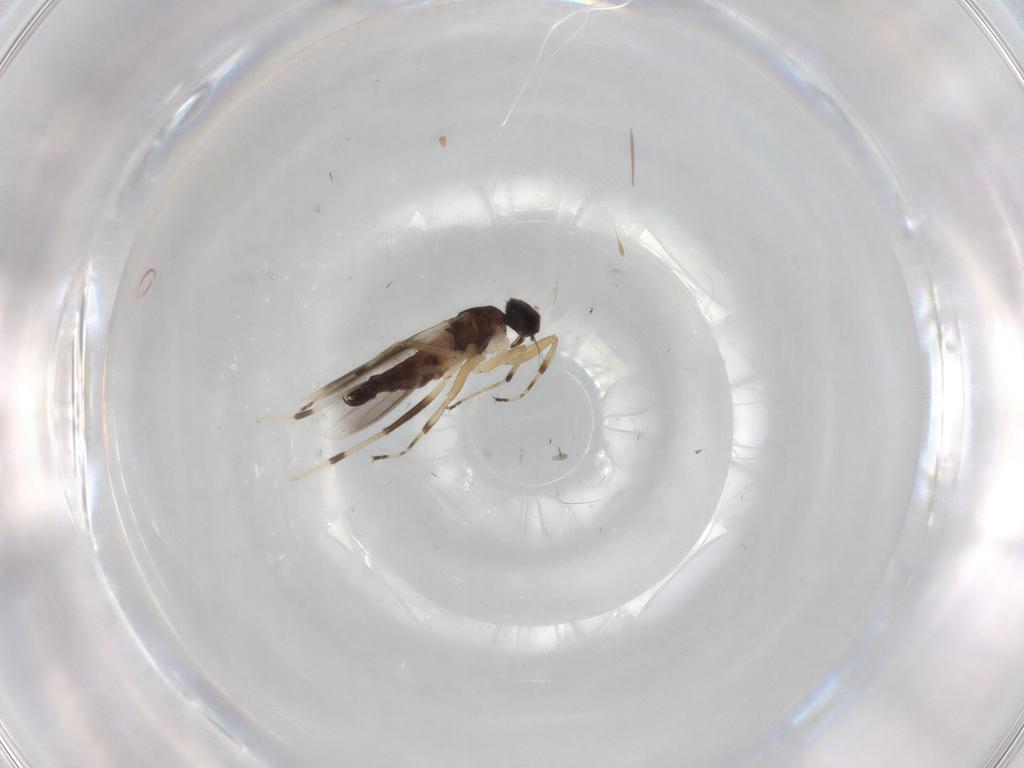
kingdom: Animalia
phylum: Arthropoda
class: Insecta
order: Diptera
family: Hybotidae
